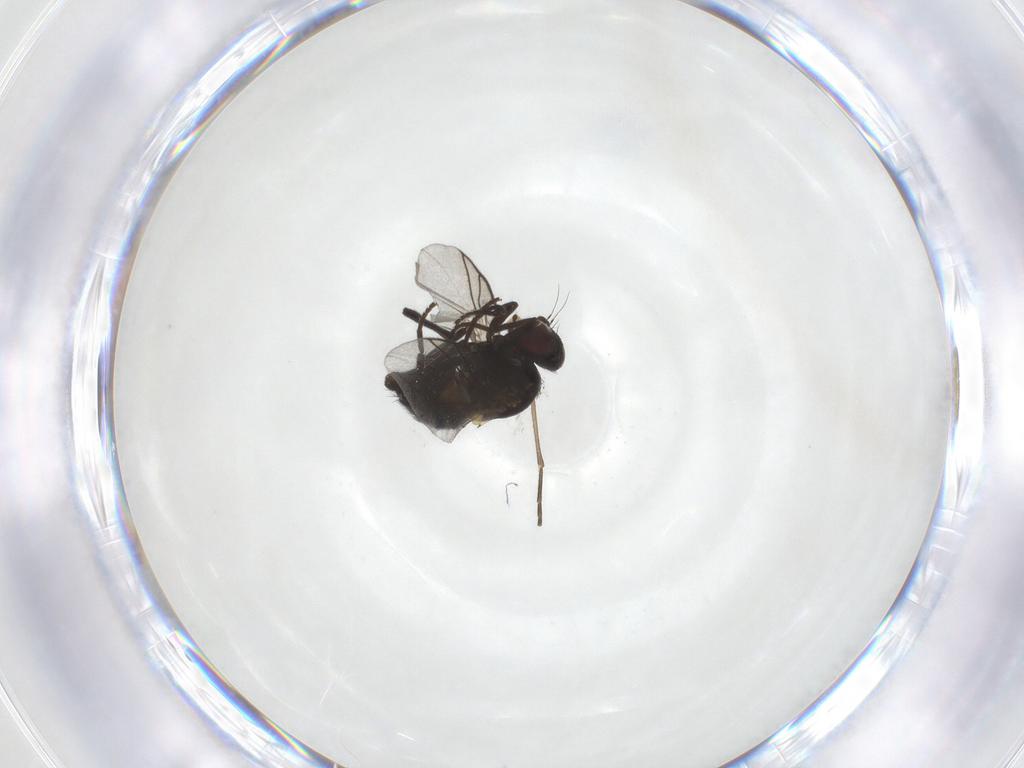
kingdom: Animalia
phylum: Arthropoda
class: Insecta
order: Diptera
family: Agromyzidae
